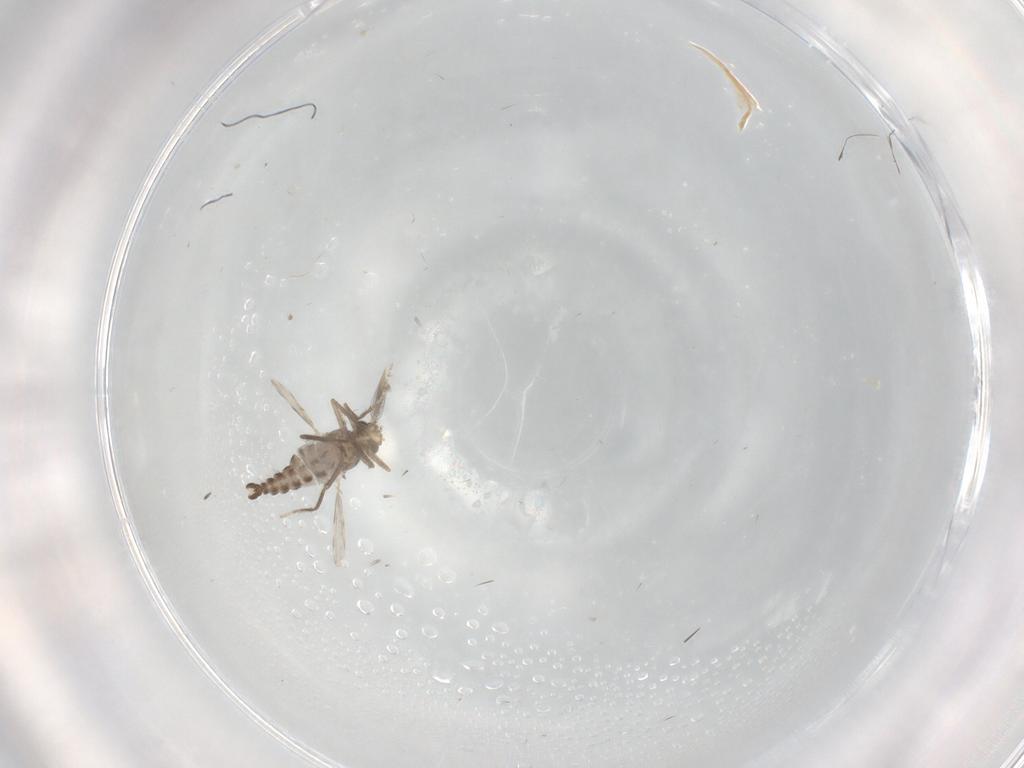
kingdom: Animalia
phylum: Arthropoda
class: Insecta
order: Diptera
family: Ceratopogonidae
